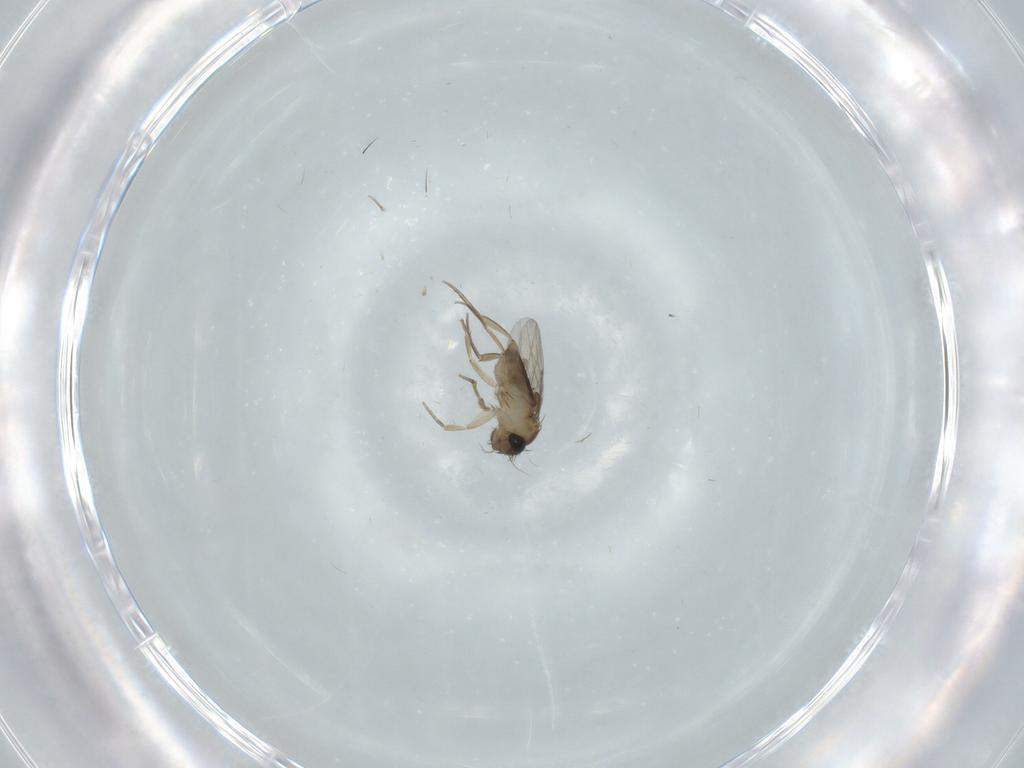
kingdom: Animalia
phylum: Arthropoda
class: Insecta
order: Diptera
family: Phoridae
